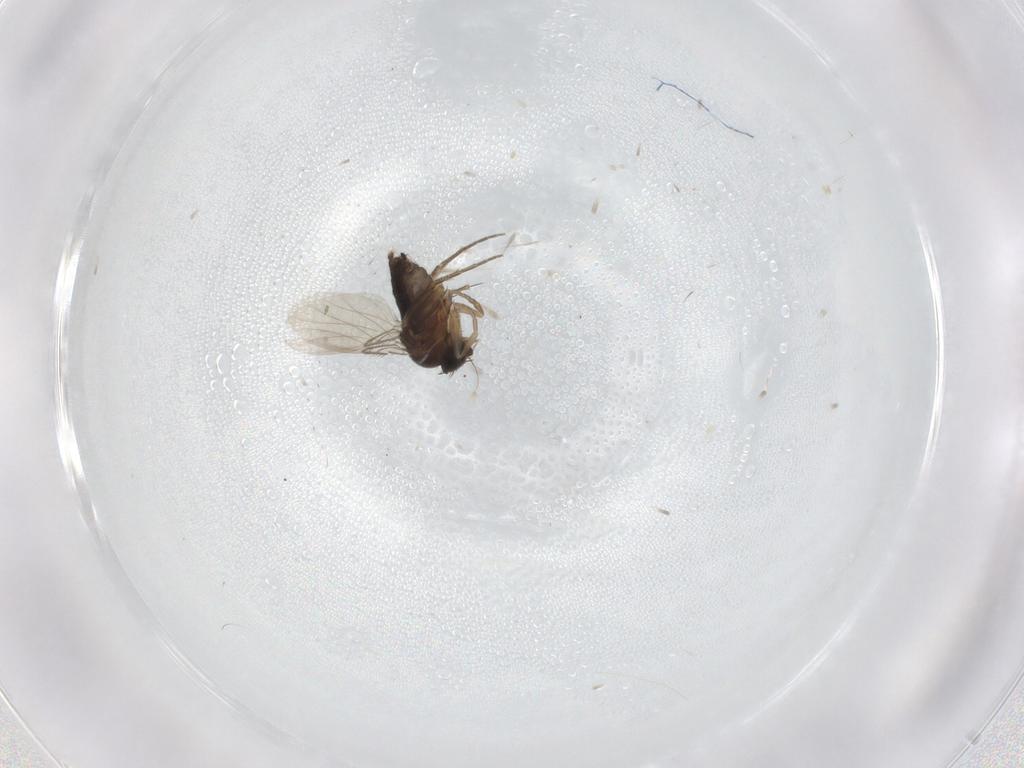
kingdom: Animalia
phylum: Arthropoda
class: Insecta
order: Diptera
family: Phoridae
